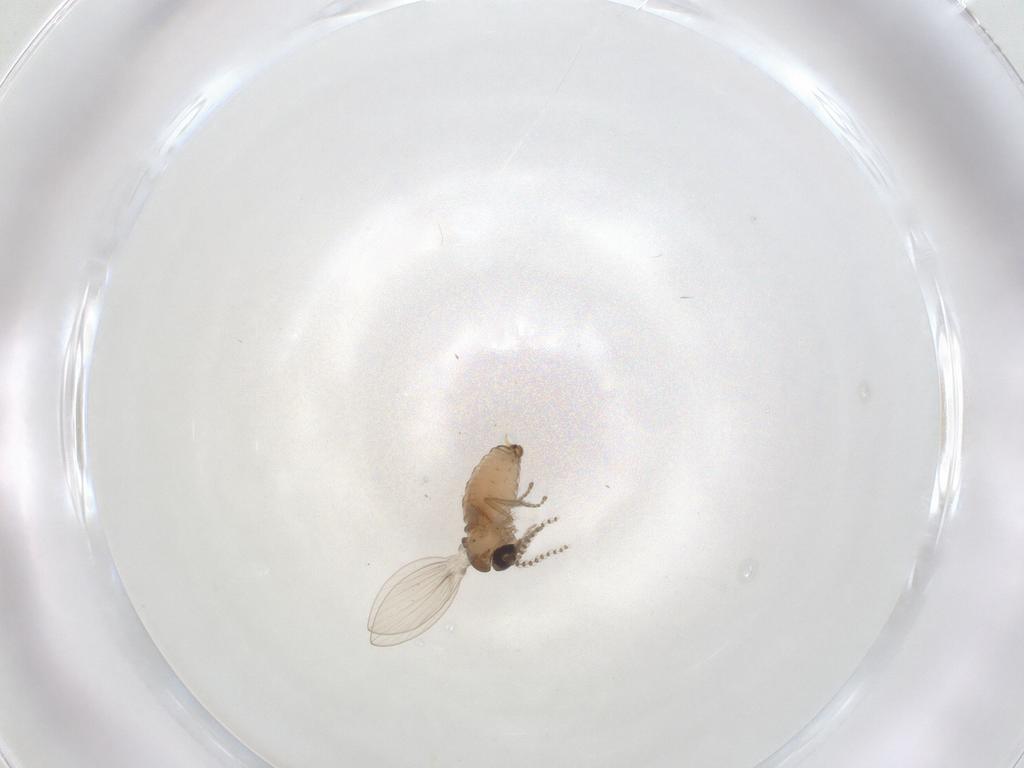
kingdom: Animalia
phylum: Arthropoda
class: Insecta
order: Diptera
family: Psychodidae
